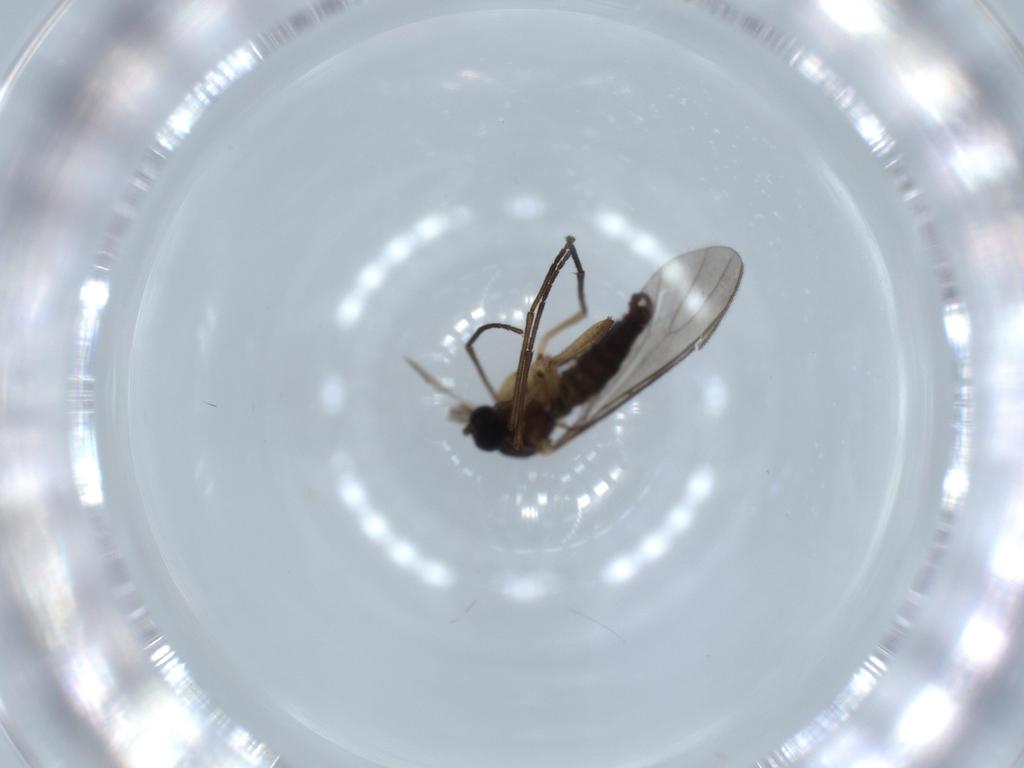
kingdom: Animalia
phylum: Arthropoda
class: Insecta
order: Diptera
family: Sciaridae
